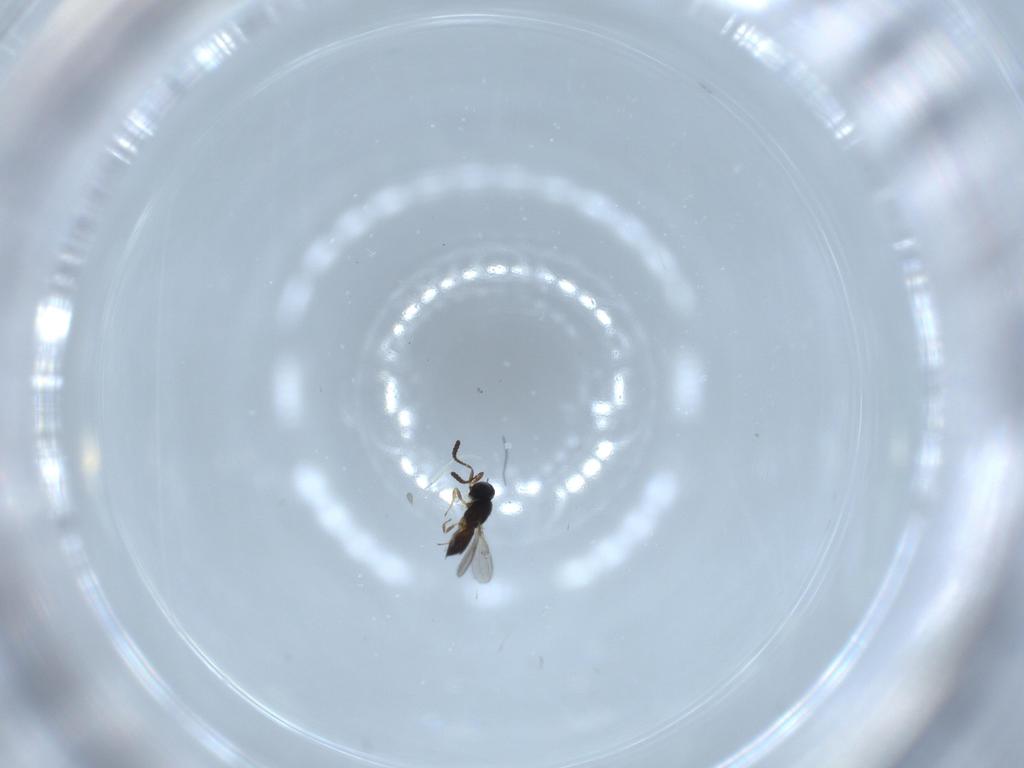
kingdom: Animalia
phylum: Arthropoda
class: Insecta
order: Hymenoptera
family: Scelionidae
